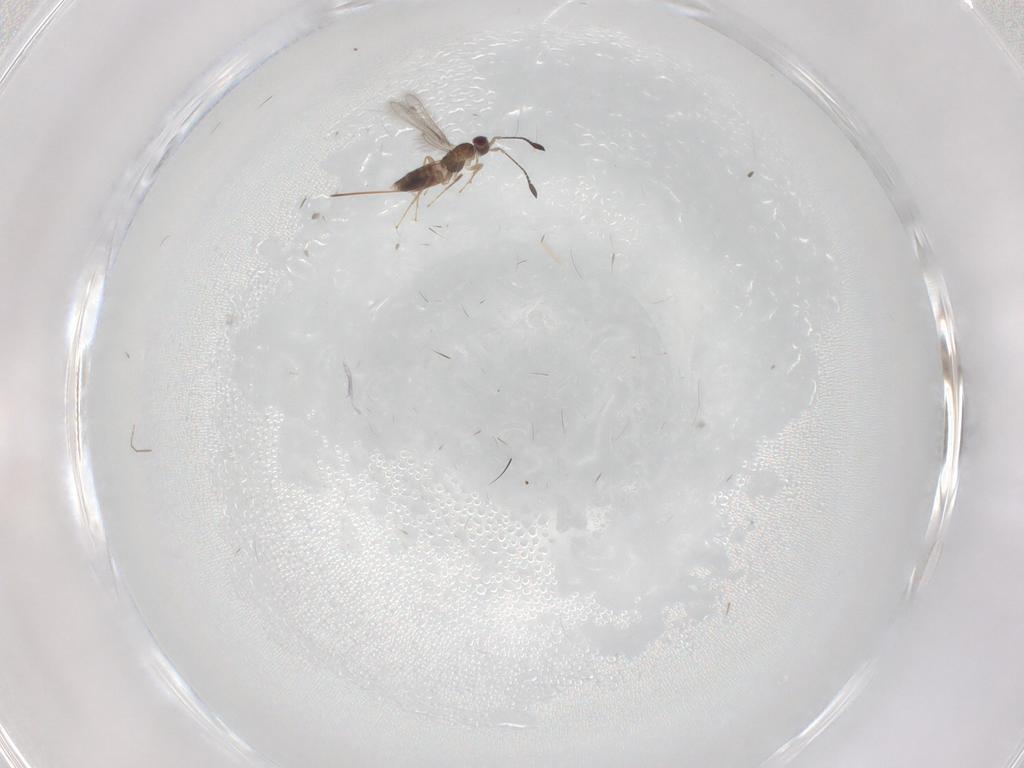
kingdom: Animalia
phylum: Arthropoda
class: Insecta
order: Hymenoptera
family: Mymaridae
